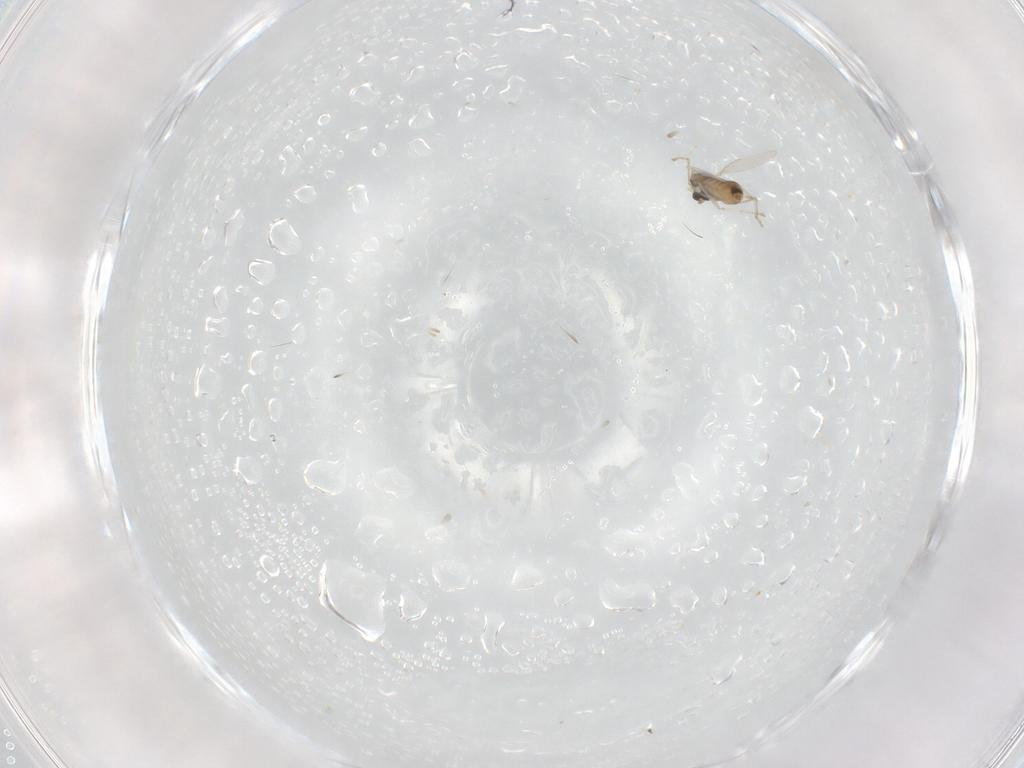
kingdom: Animalia
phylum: Arthropoda
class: Insecta
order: Diptera
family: Cecidomyiidae
